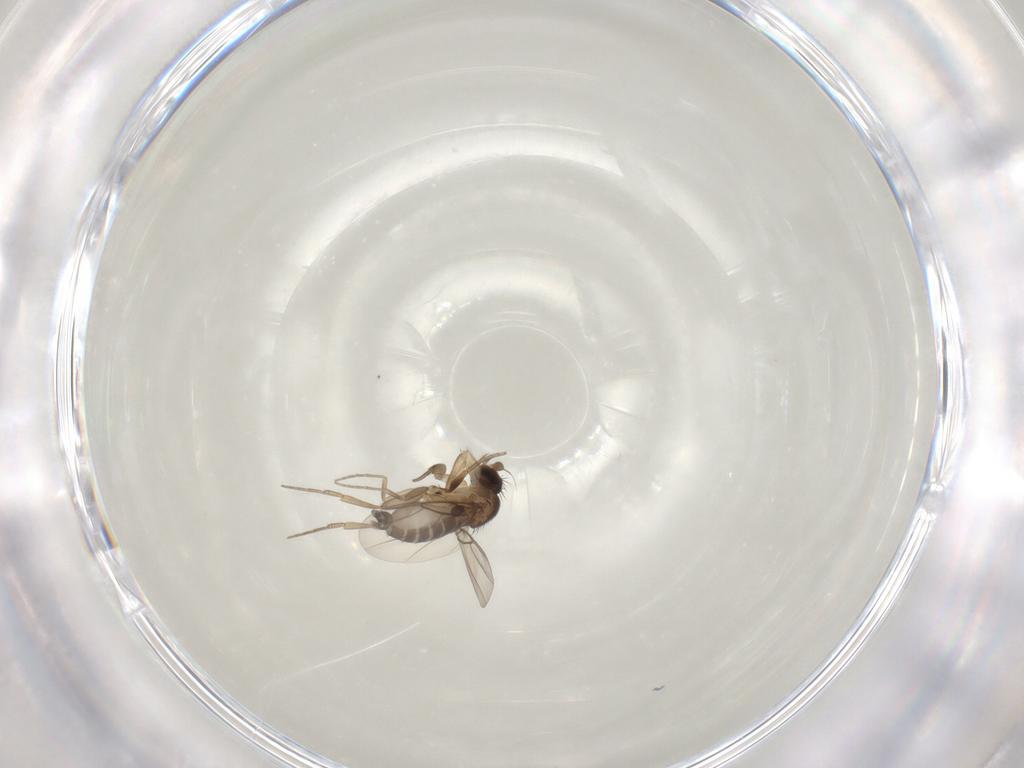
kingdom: Animalia
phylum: Arthropoda
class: Insecta
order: Diptera
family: Phoridae
